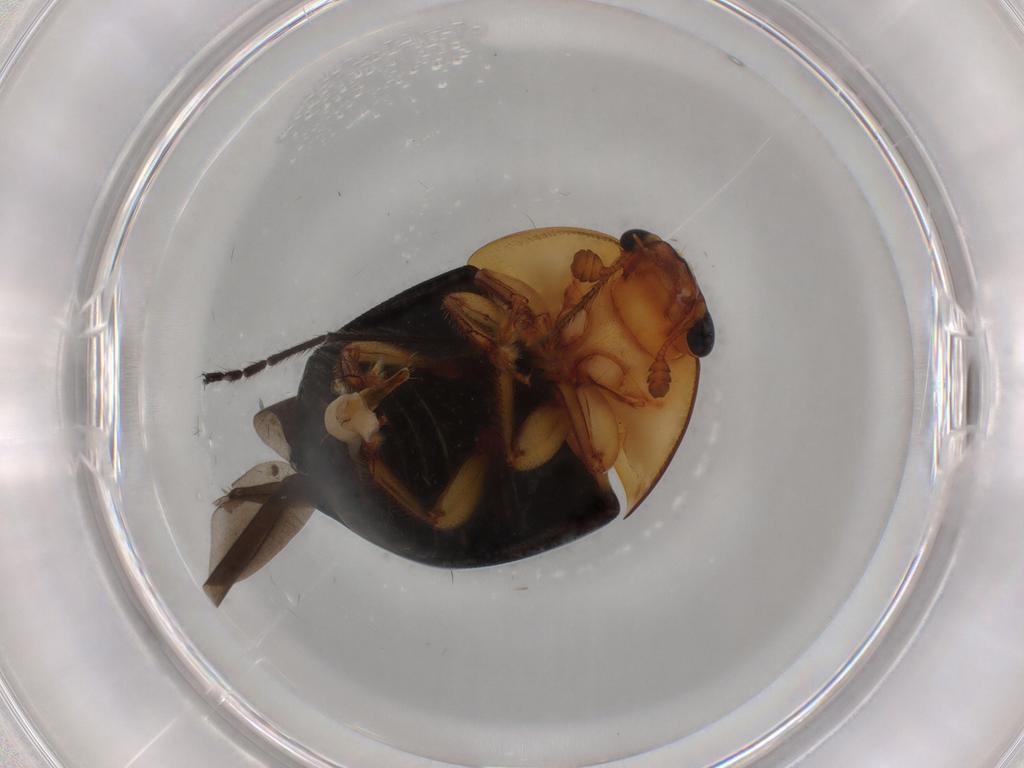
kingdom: Animalia
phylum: Arthropoda
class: Insecta
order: Coleoptera
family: Nitidulidae
